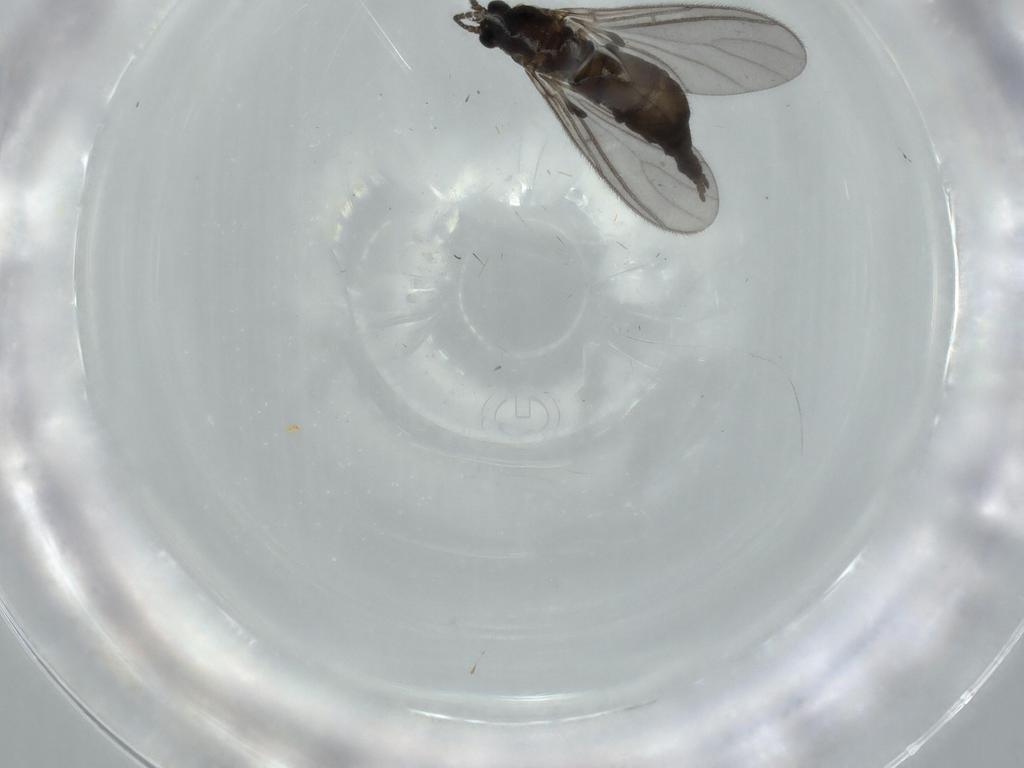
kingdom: Animalia
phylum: Arthropoda
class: Insecta
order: Diptera
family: Sciaridae
